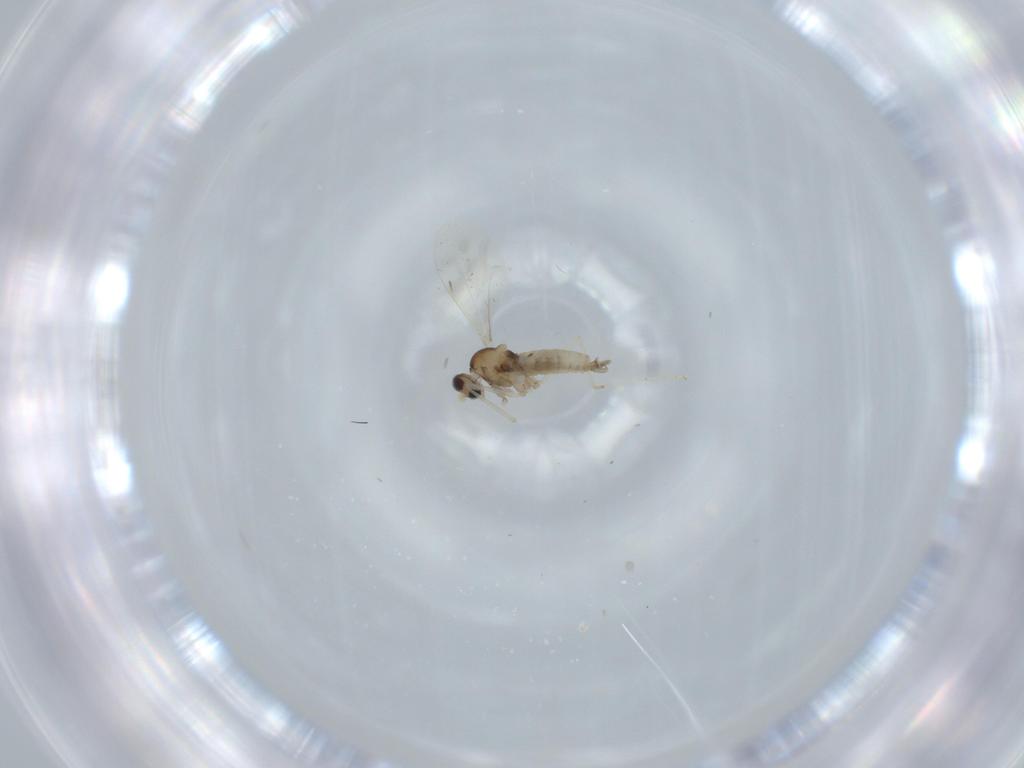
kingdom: Animalia
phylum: Arthropoda
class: Insecta
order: Diptera
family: Cecidomyiidae
